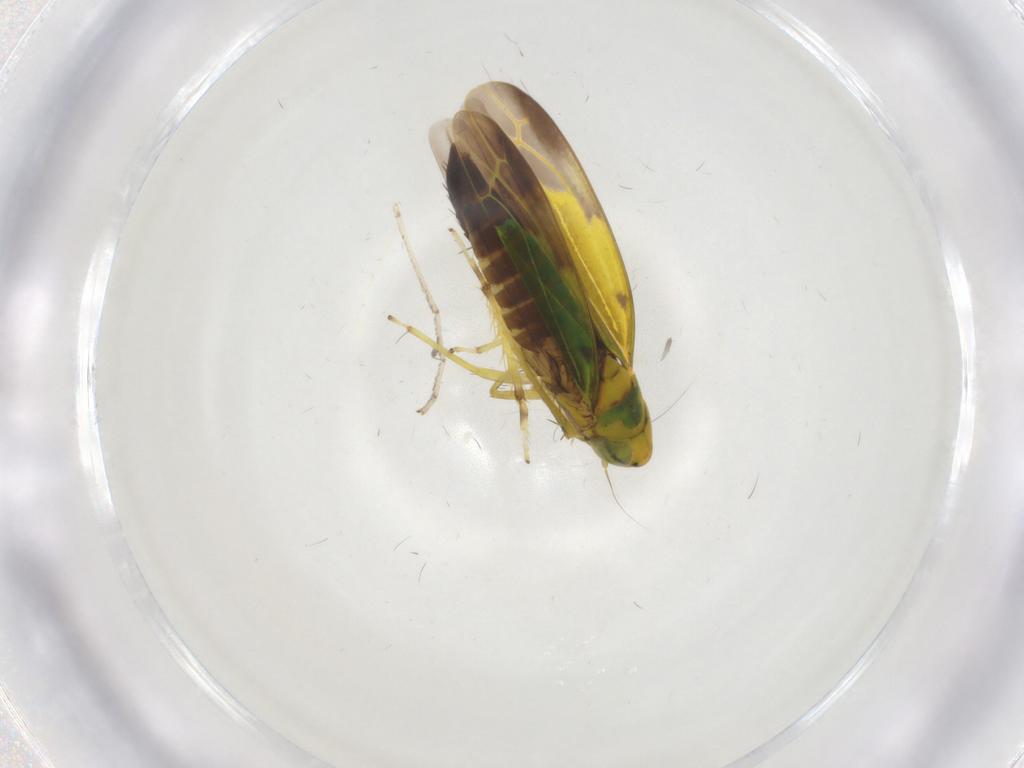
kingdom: Animalia
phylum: Arthropoda
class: Insecta
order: Hemiptera
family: Cicadellidae
